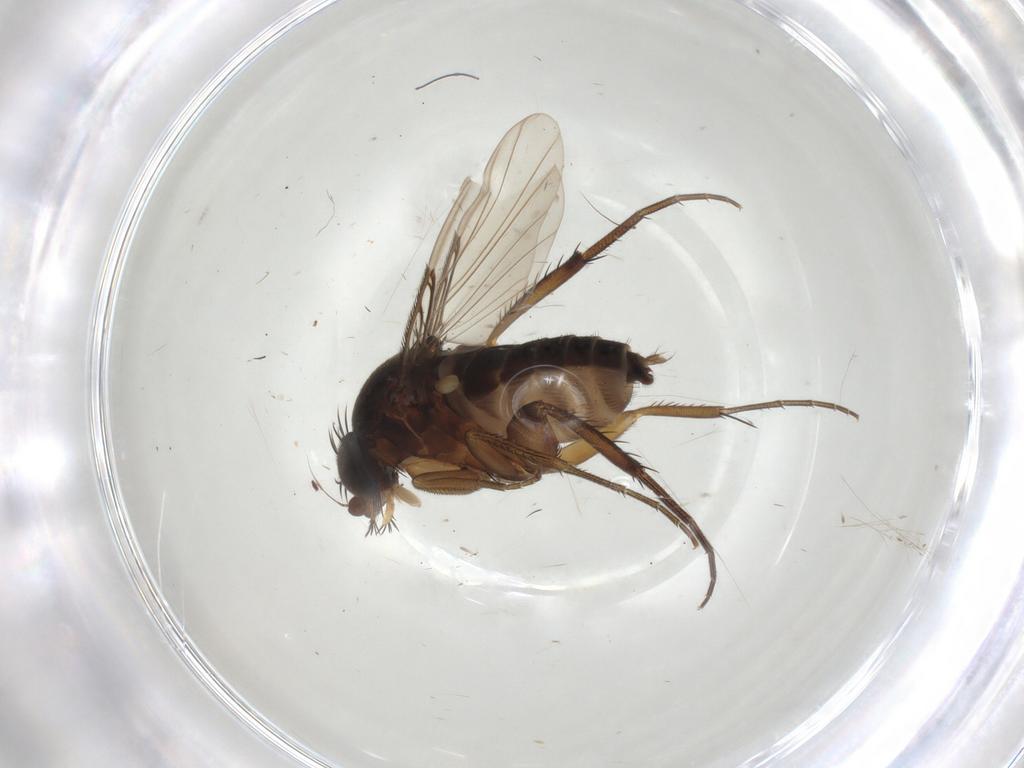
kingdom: Animalia
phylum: Arthropoda
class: Insecta
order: Diptera
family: Phoridae
